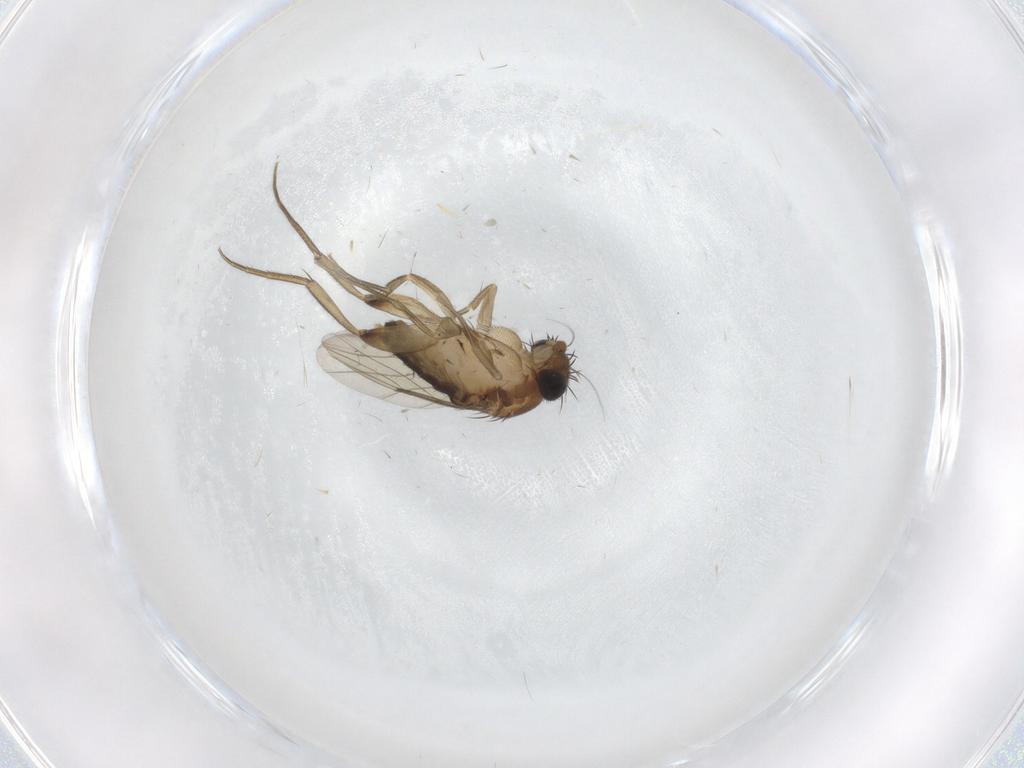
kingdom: Animalia
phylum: Arthropoda
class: Insecta
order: Diptera
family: Phoridae
